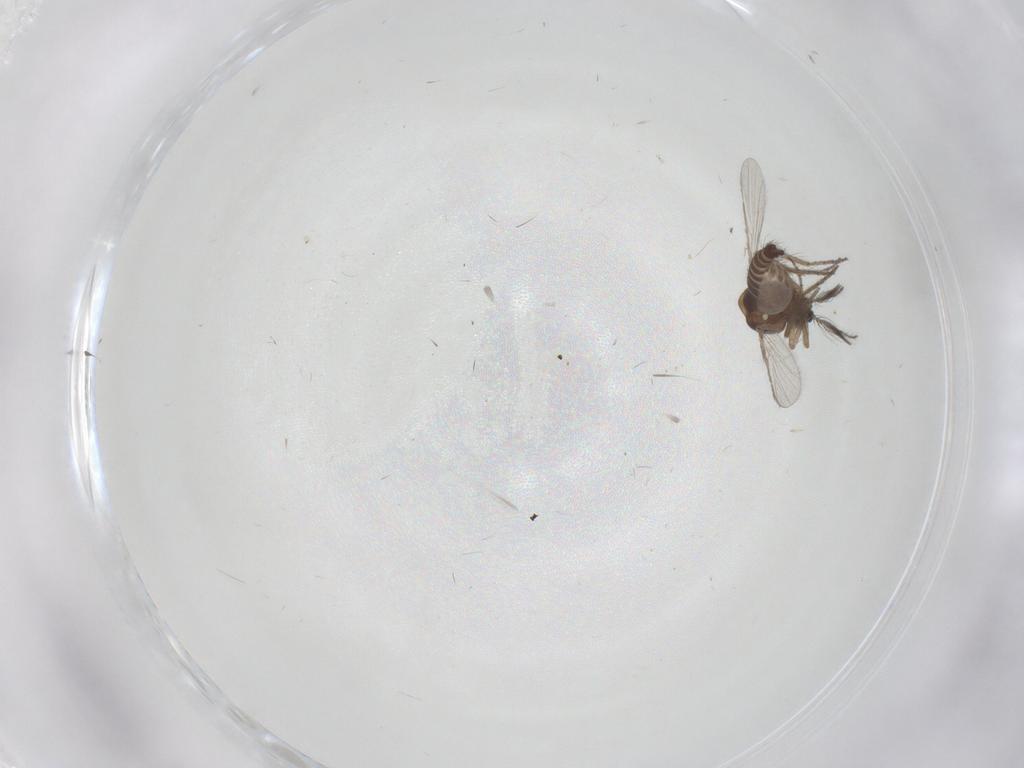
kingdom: Animalia
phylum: Arthropoda
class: Insecta
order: Diptera
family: Ceratopogonidae
